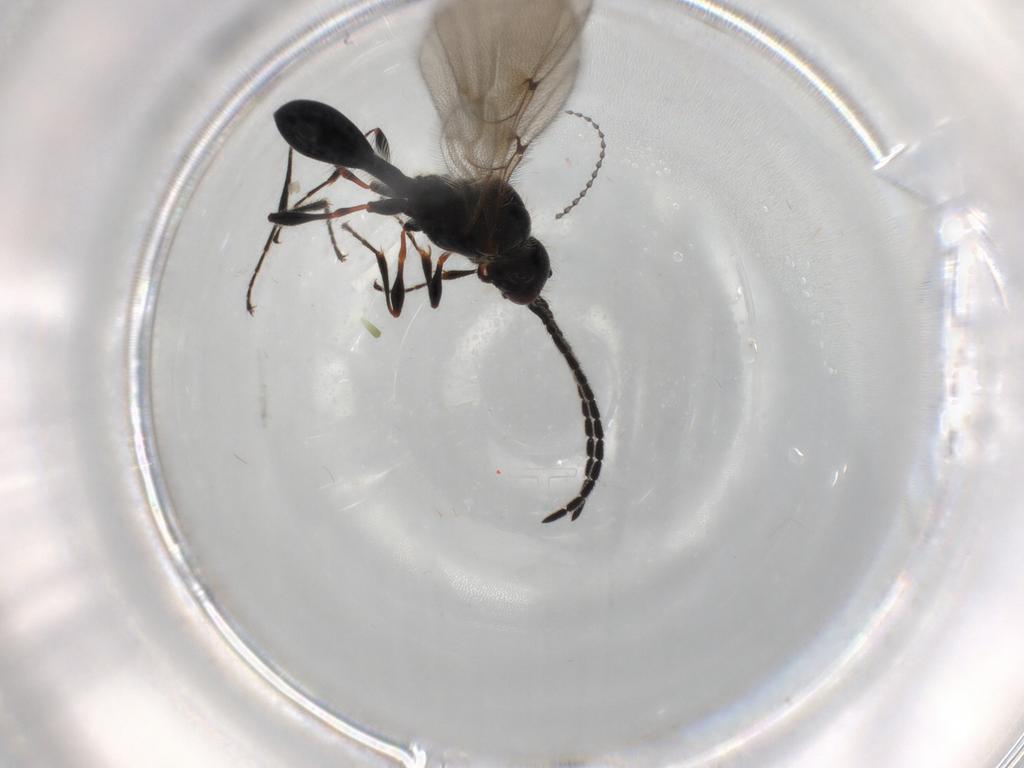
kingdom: Animalia
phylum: Arthropoda
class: Insecta
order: Hymenoptera
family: Diapriidae
